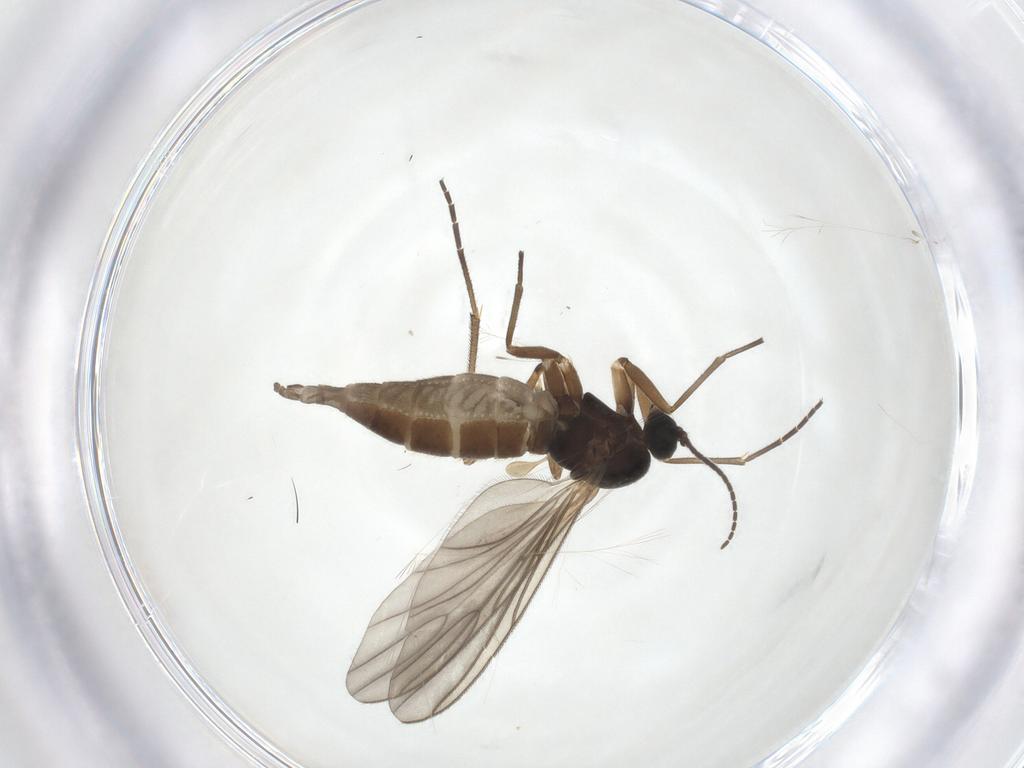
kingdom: Animalia
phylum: Arthropoda
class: Insecta
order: Diptera
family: Sciaridae
